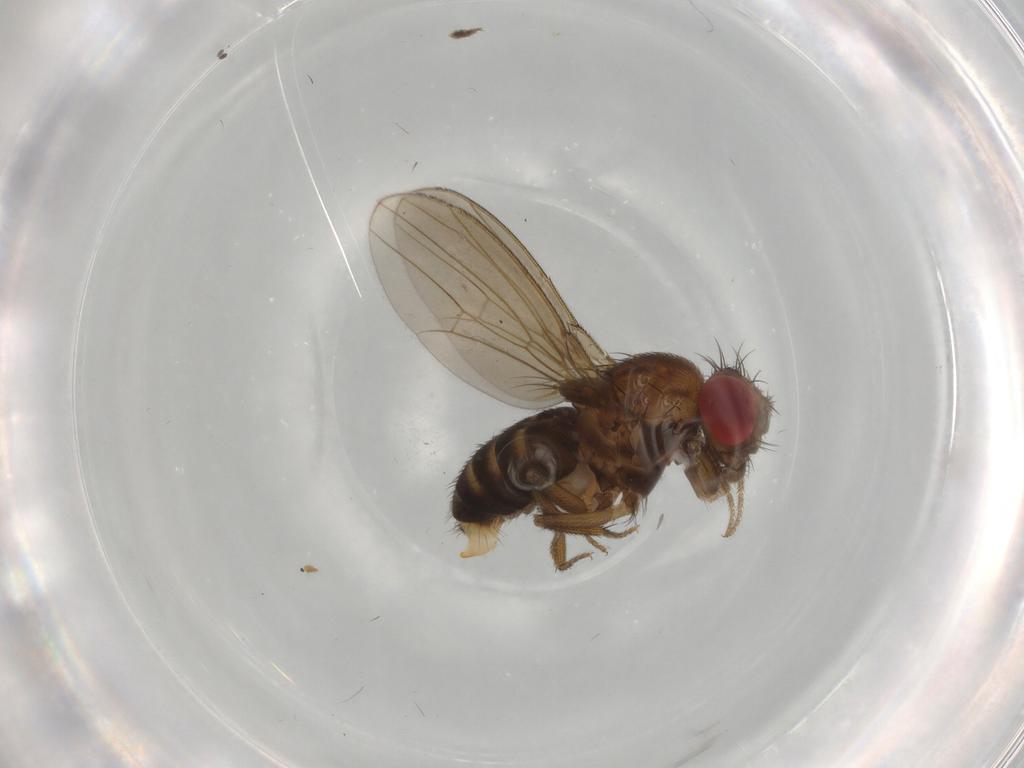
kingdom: Animalia
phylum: Arthropoda
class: Insecta
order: Diptera
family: Drosophilidae
